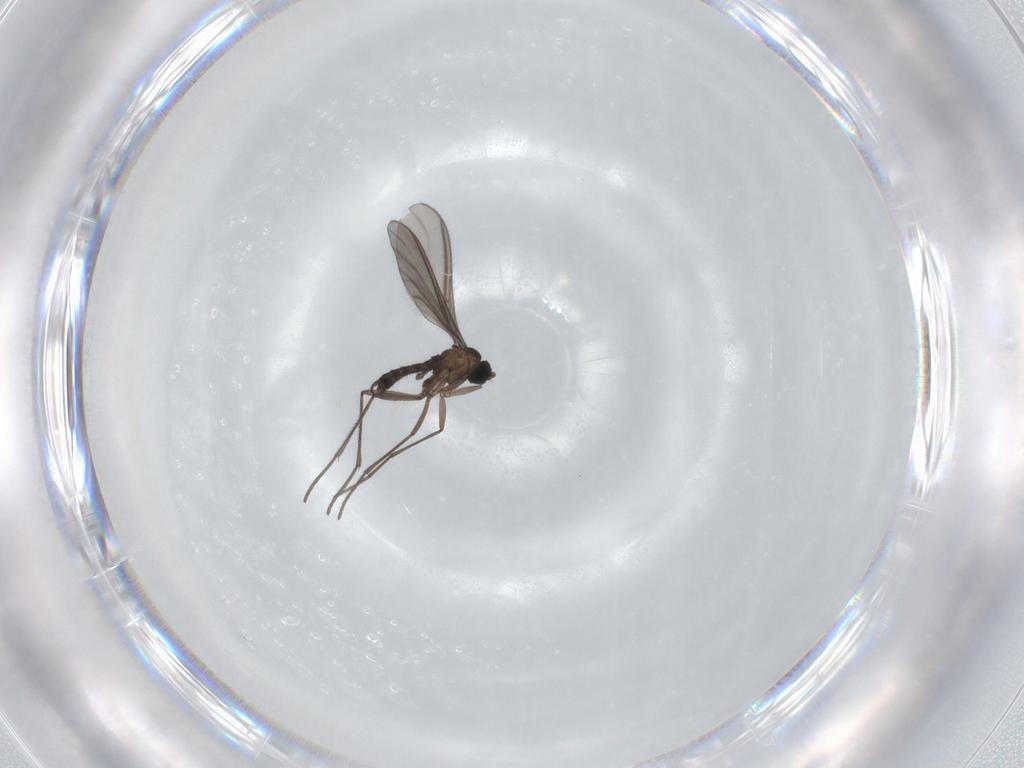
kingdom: Animalia
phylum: Arthropoda
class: Insecta
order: Diptera
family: Sciaridae
